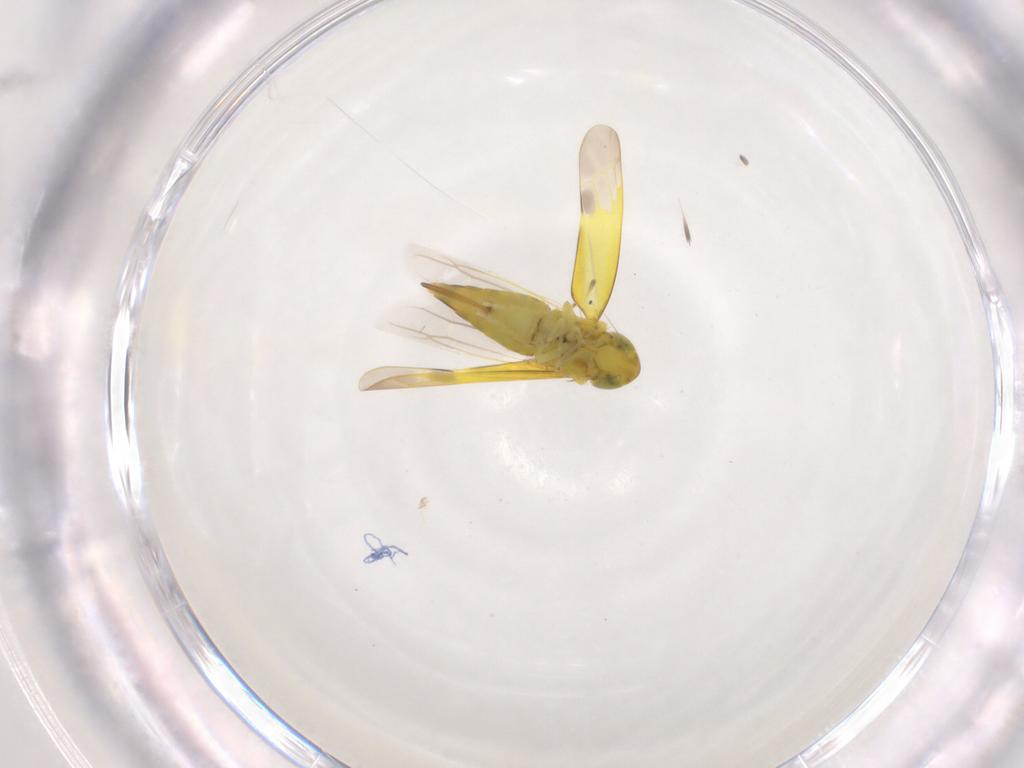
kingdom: Animalia
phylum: Arthropoda
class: Insecta
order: Hemiptera
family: Cicadellidae
